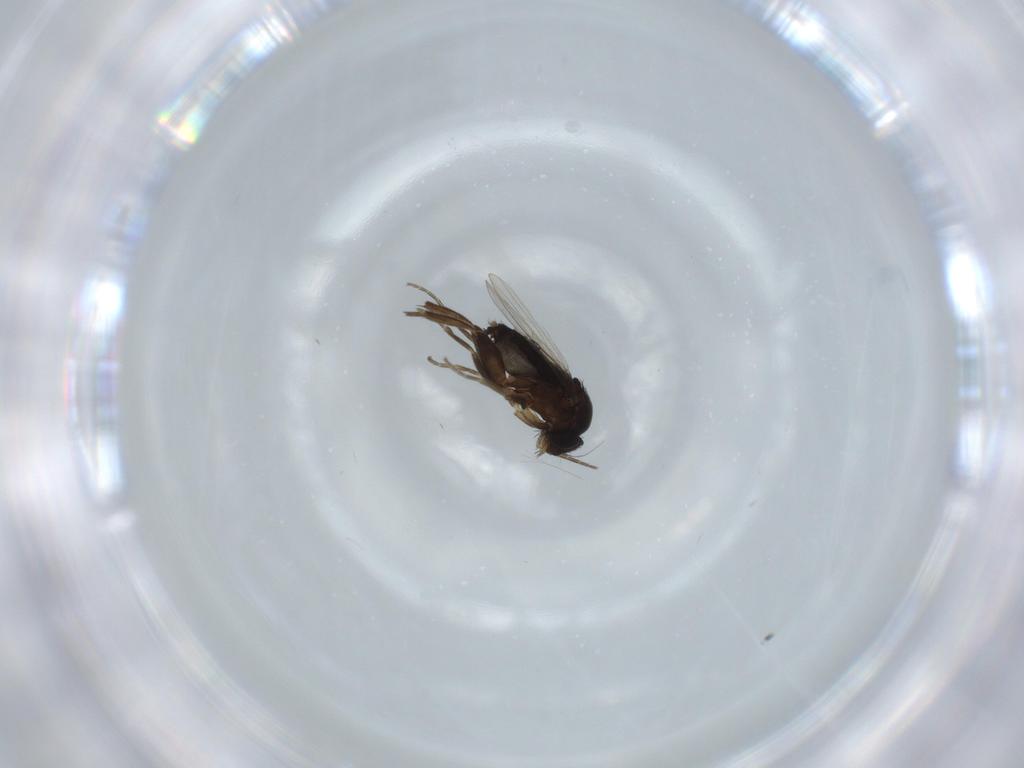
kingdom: Animalia
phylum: Arthropoda
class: Insecta
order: Diptera
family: Phoridae
